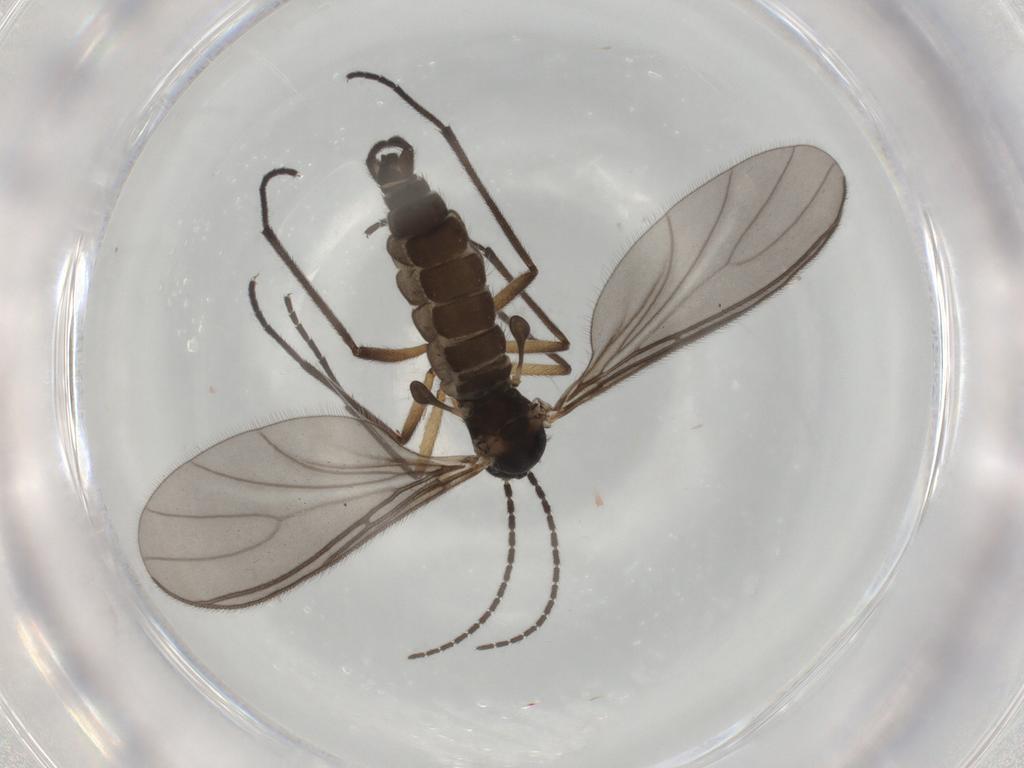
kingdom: Animalia
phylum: Arthropoda
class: Insecta
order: Diptera
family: Sciaridae
